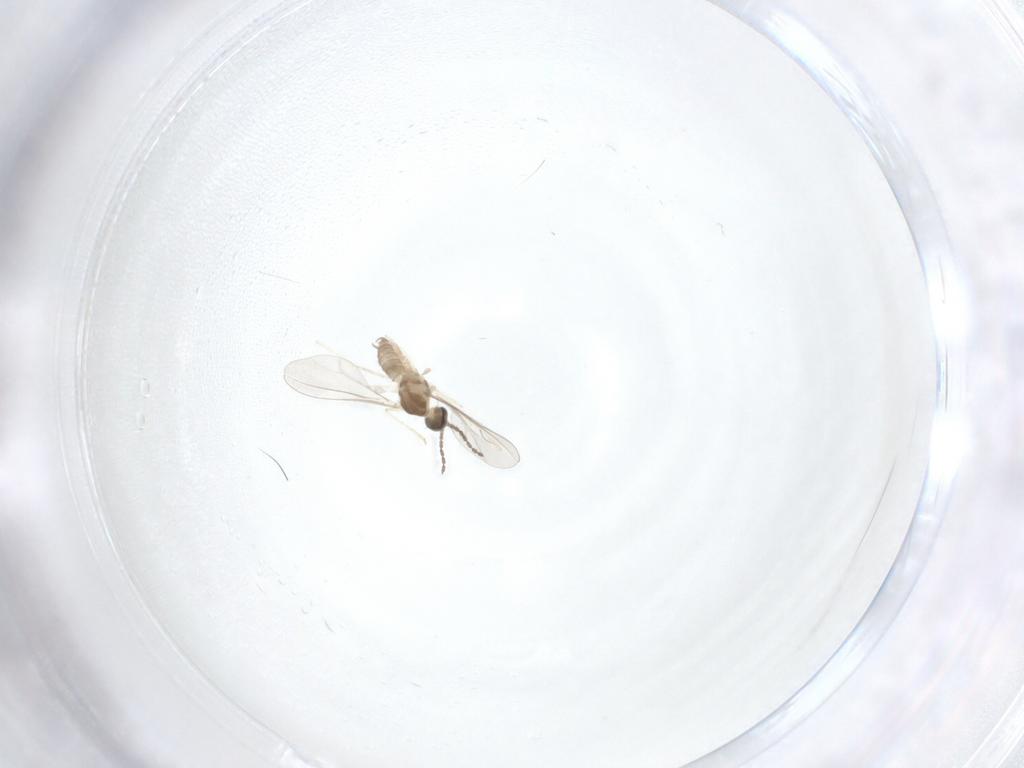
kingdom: Animalia
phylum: Arthropoda
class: Insecta
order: Diptera
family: Cecidomyiidae
